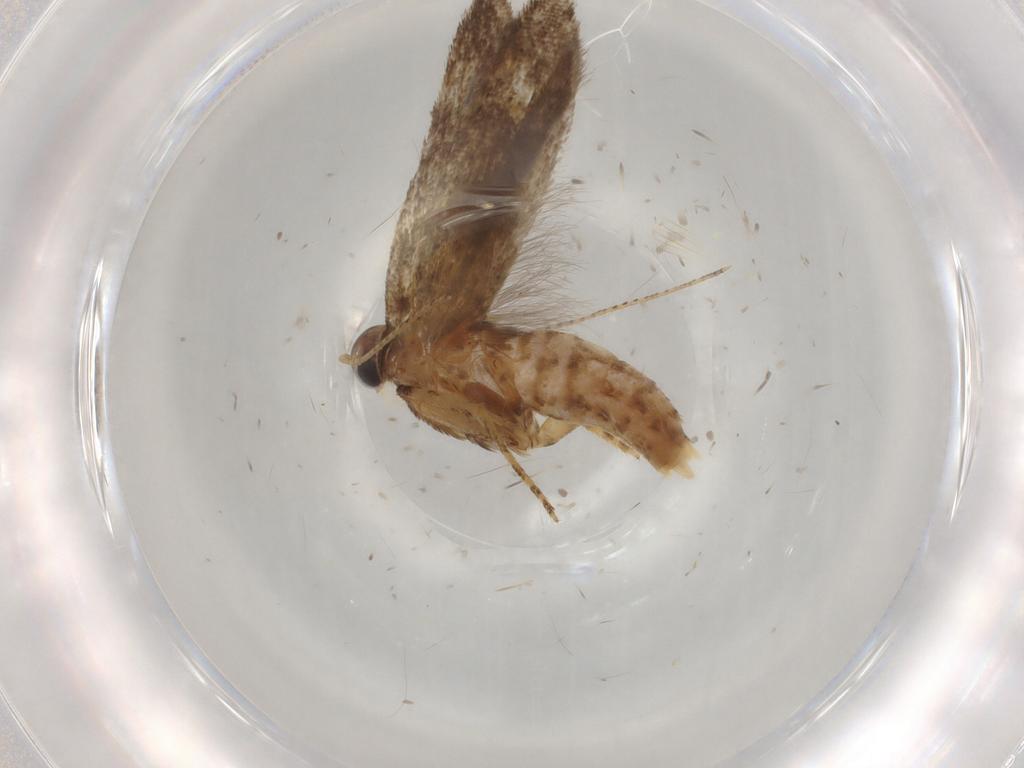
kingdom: Animalia
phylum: Arthropoda
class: Insecta
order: Lepidoptera
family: Plutellidae
